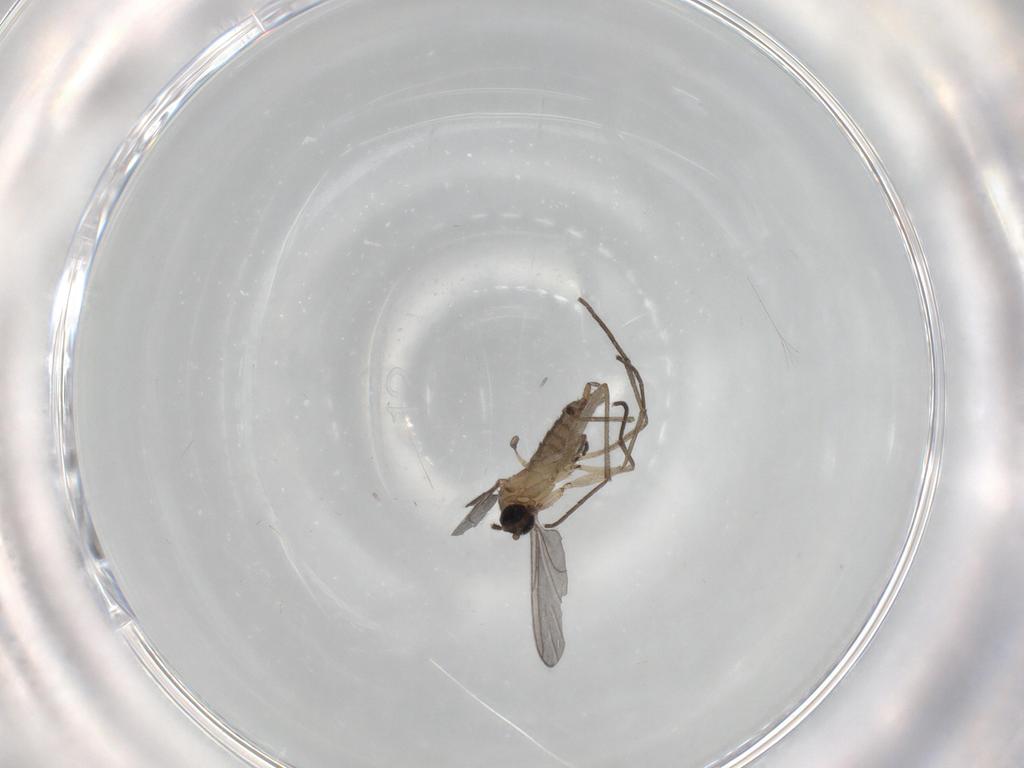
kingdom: Animalia
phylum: Arthropoda
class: Insecta
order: Diptera
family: Sciaridae
